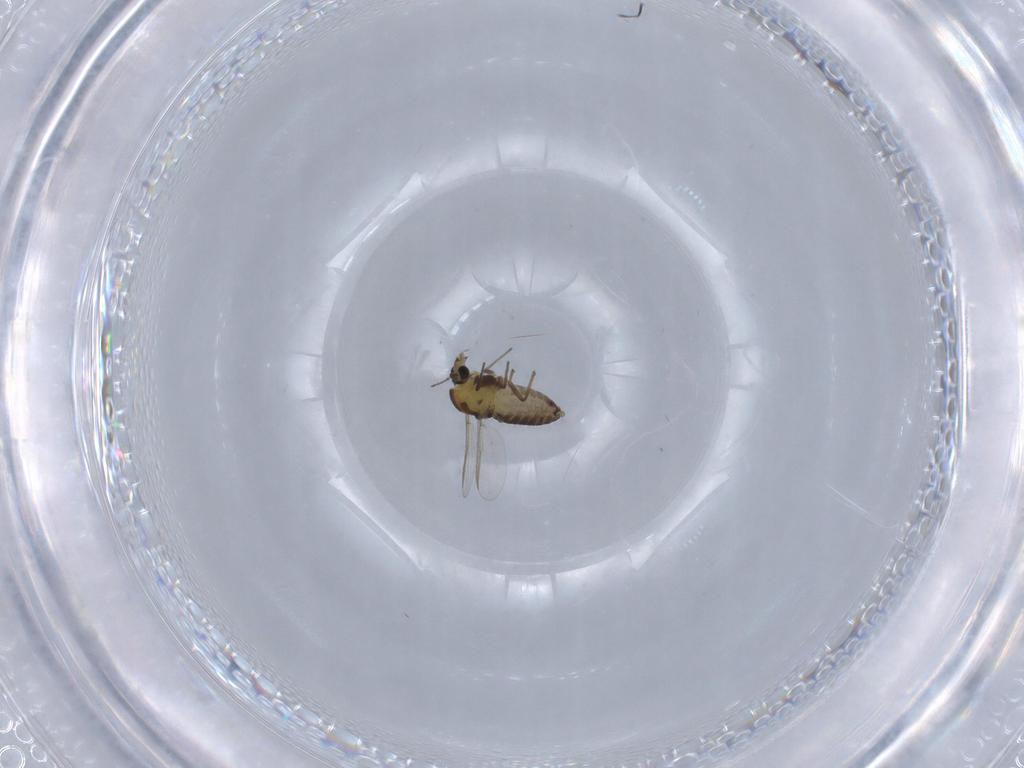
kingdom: Animalia
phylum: Arthropoda
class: Insecta
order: Diptera
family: Chironomidae
